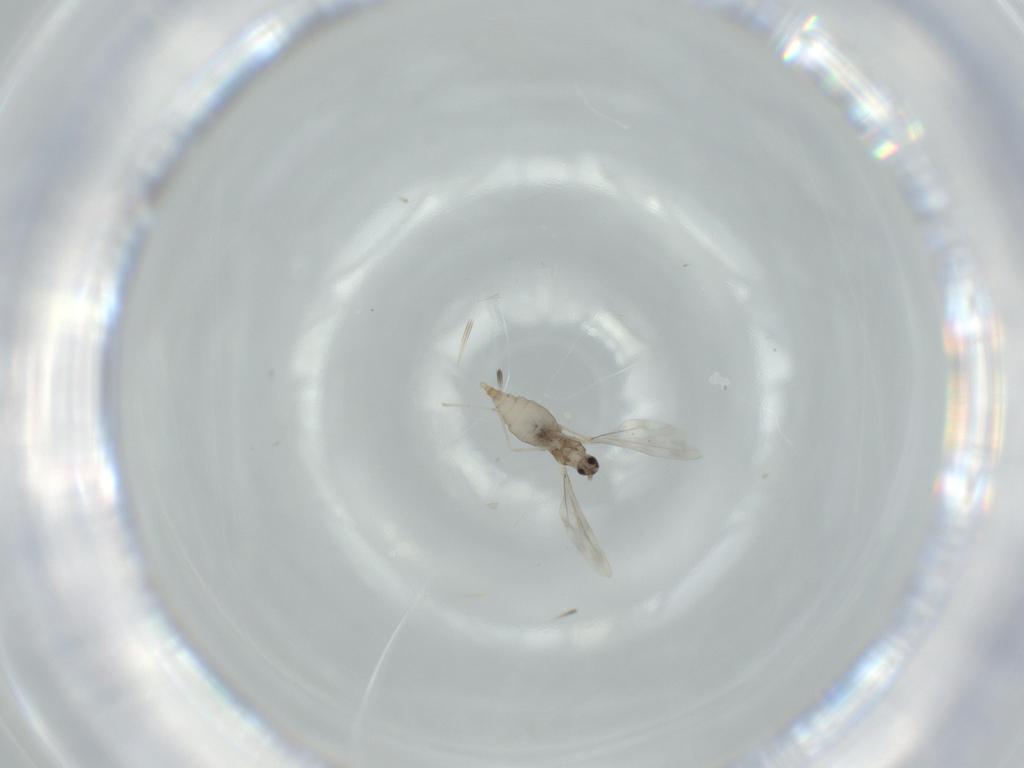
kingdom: Animalia
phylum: Arthropoda
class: Insecta
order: Diptera
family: Cecidomyiidae
